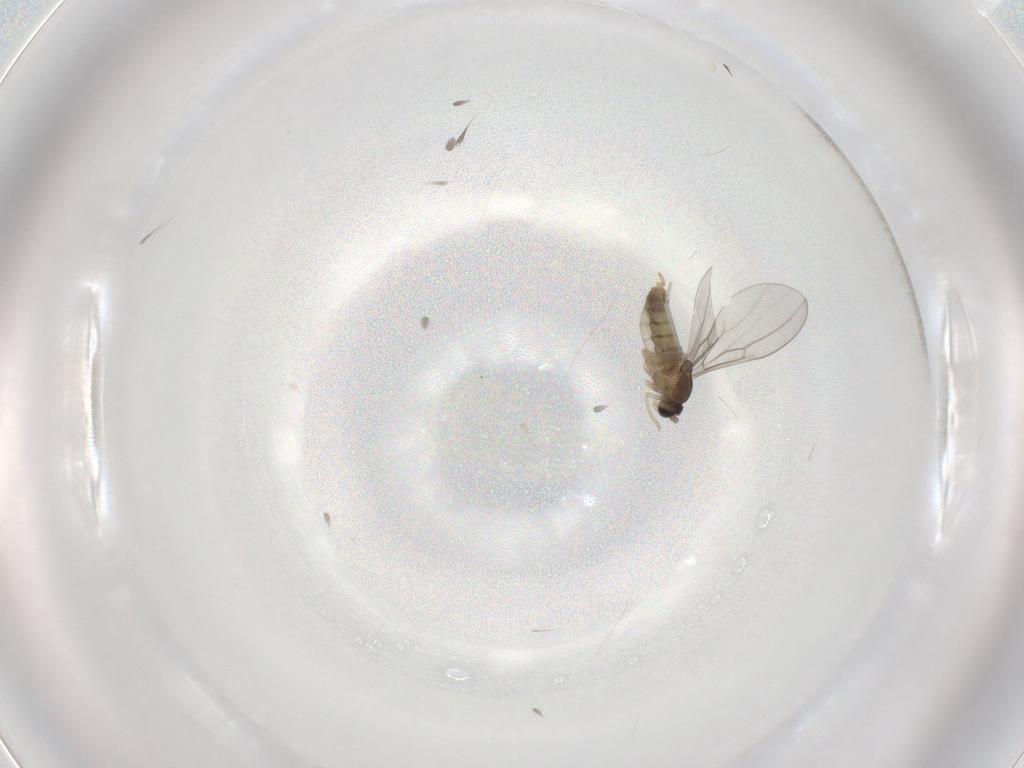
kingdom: Animalia
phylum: Arthropoda
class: Insecta
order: Diptera
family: Cecidomyiidae
